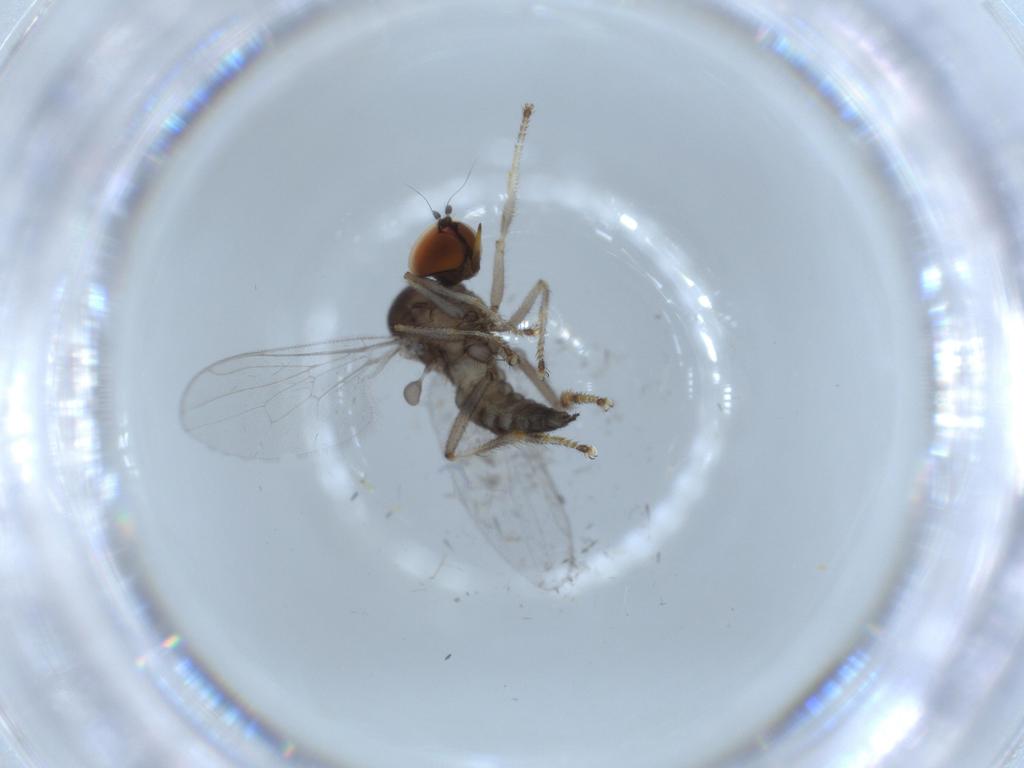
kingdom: Animalia
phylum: Arthropoda
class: Insecta
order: Diptera
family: Hybotidae
